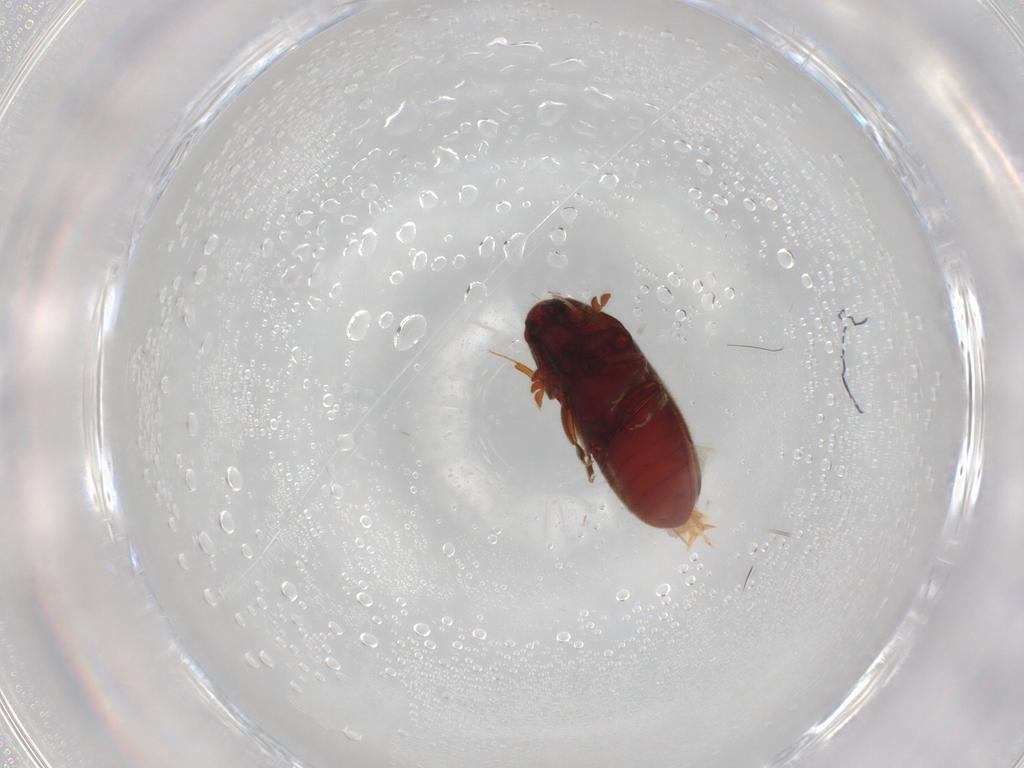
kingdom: Animalia
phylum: Arthropoda
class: Insecta
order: Coleoptera
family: Throscidae
